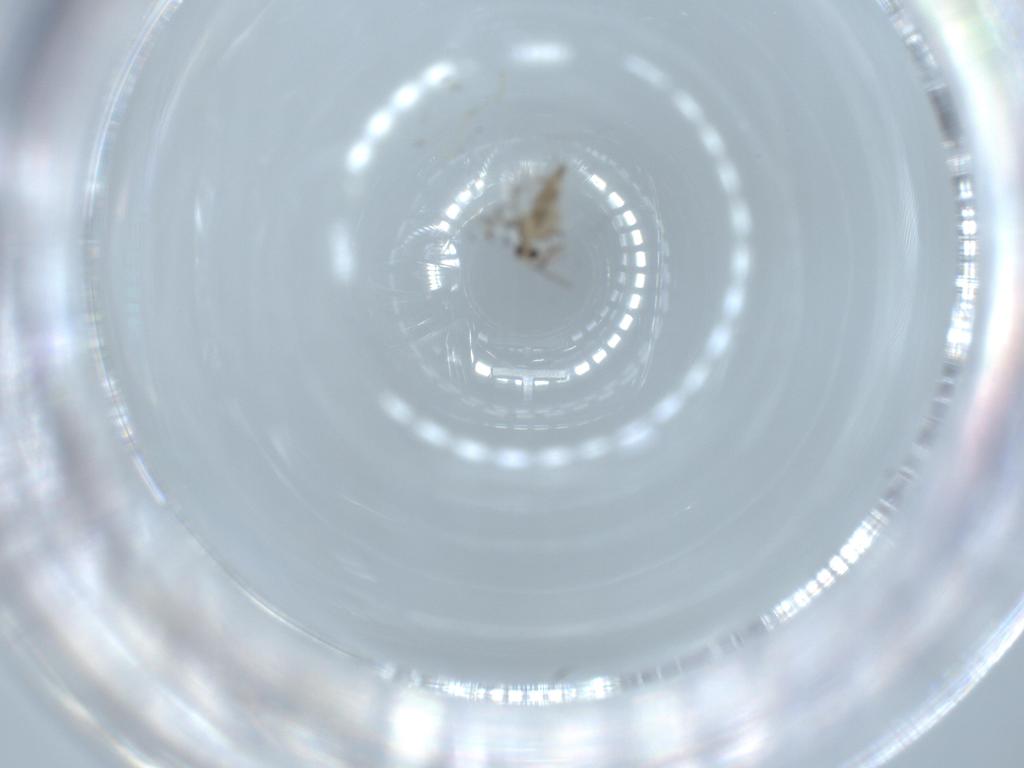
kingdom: Animalia
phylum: Arthropoda
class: Insecta
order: Diptera
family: Cecidomyiidae
